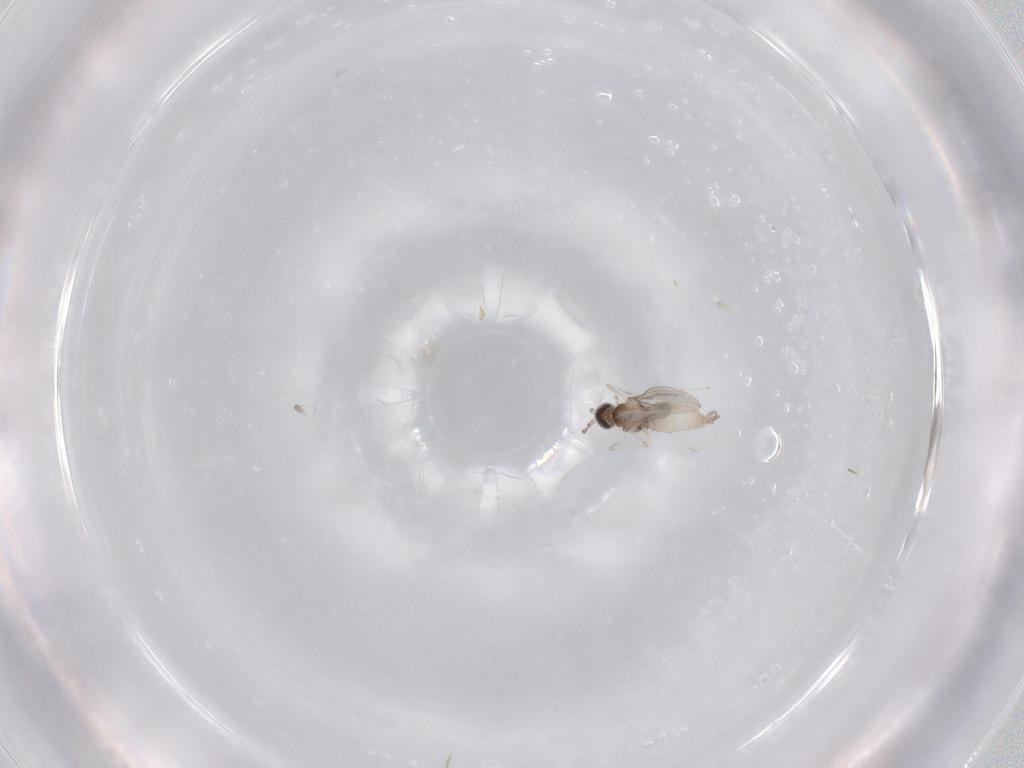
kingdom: Animalia
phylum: Arthropoda
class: Insecta
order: Diptera
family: Cecidomyiidae
